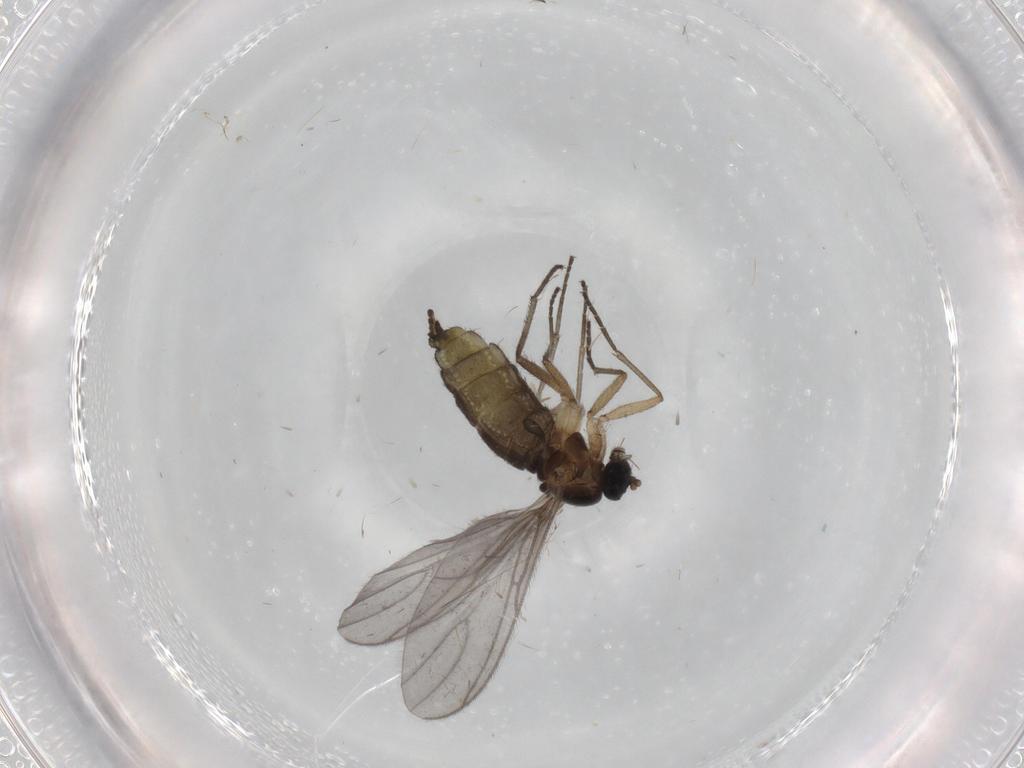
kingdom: Animalia
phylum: Arthropoda
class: Insecta
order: Diptera
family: Sciaridae
